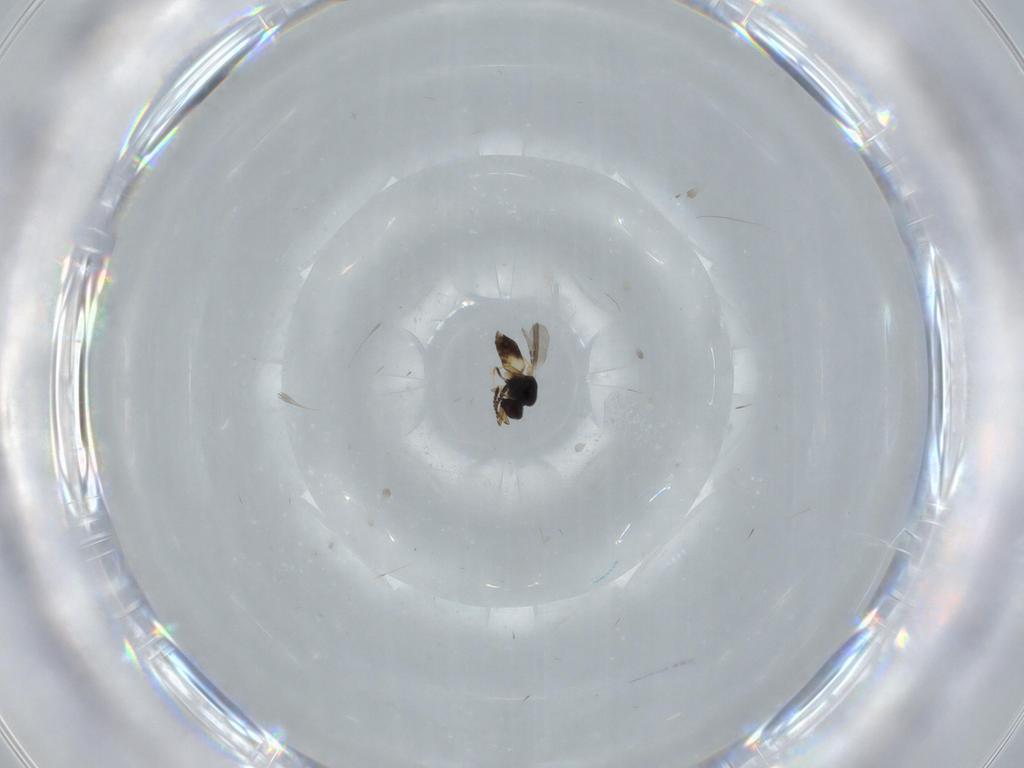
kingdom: Animalia
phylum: Arthropoda
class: Insecta
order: Hymenoptera
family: Vespidae
